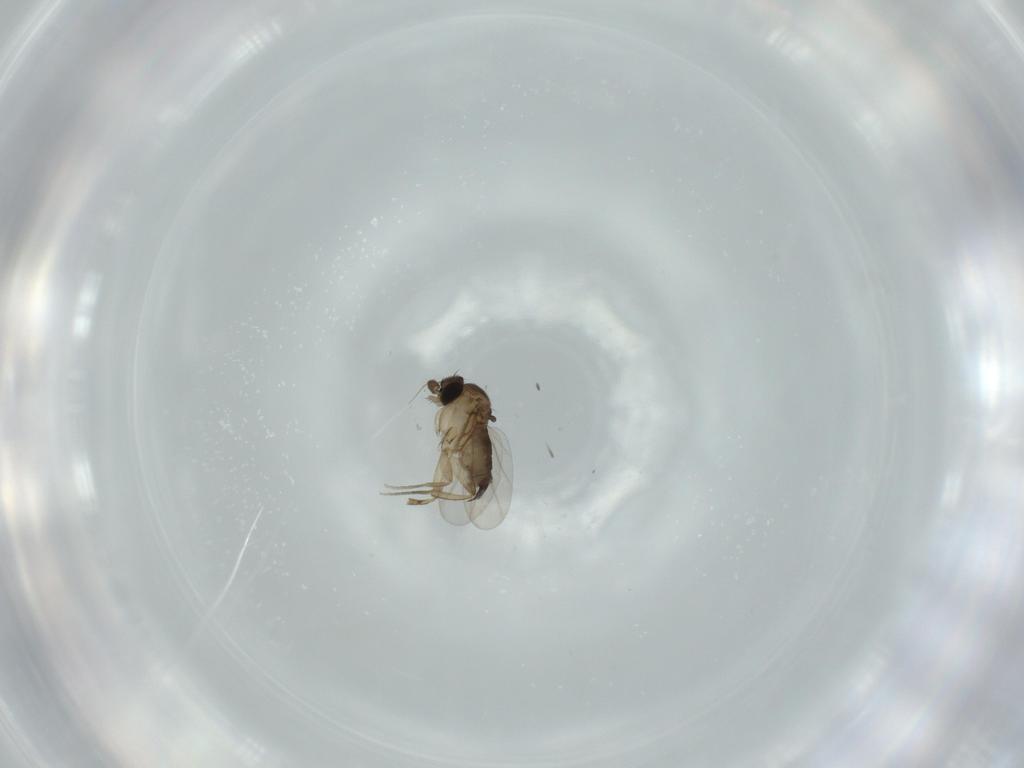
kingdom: Animalia
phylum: Arthropoda
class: Insecta
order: Diptera
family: Phoridae
